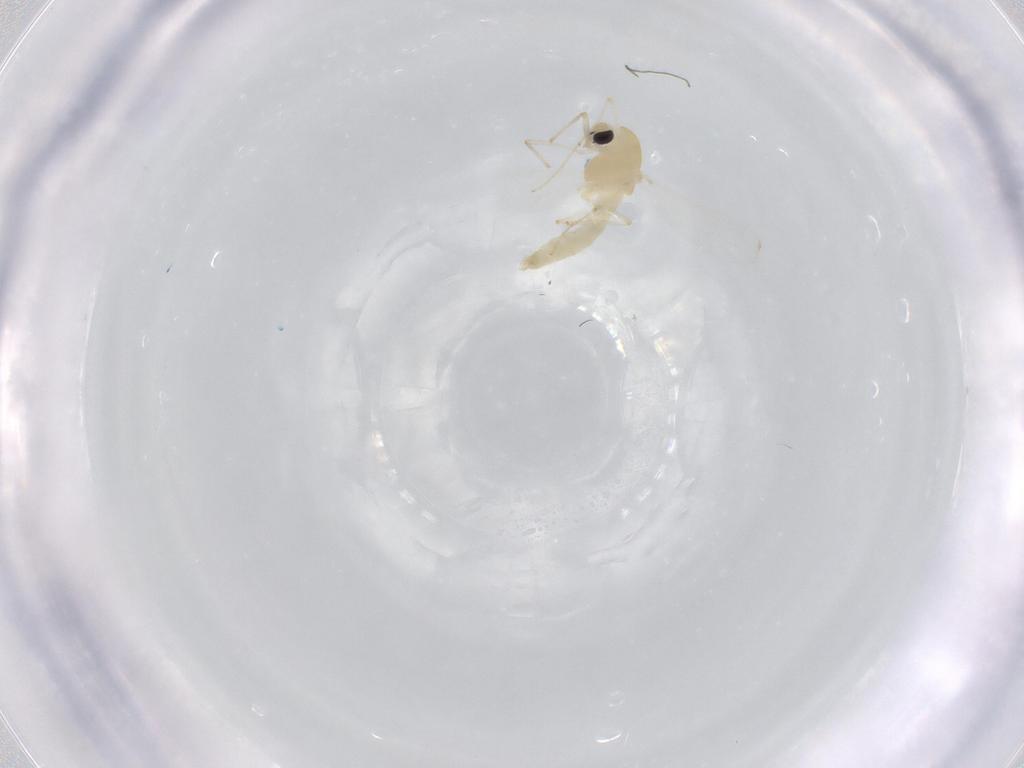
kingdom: Animalia
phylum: Arthropoda
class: Insecta
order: Diptera
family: Chironomidae
